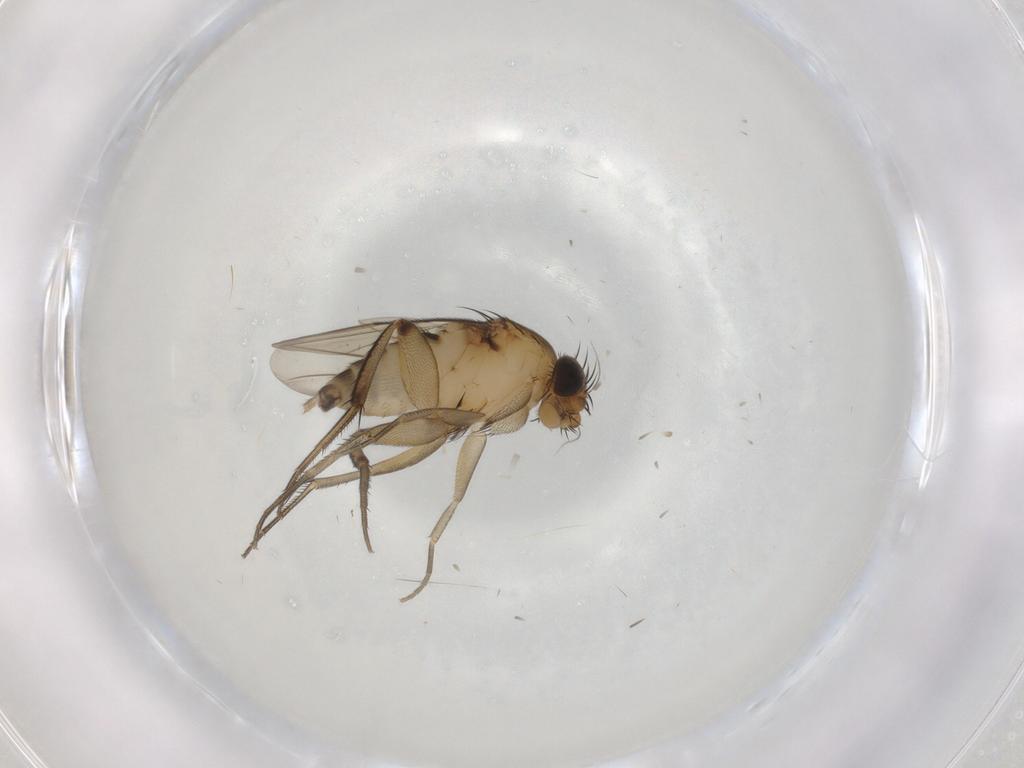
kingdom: Animalia
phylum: Arthropoda
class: Insecta
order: Diptera
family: Phoridae
